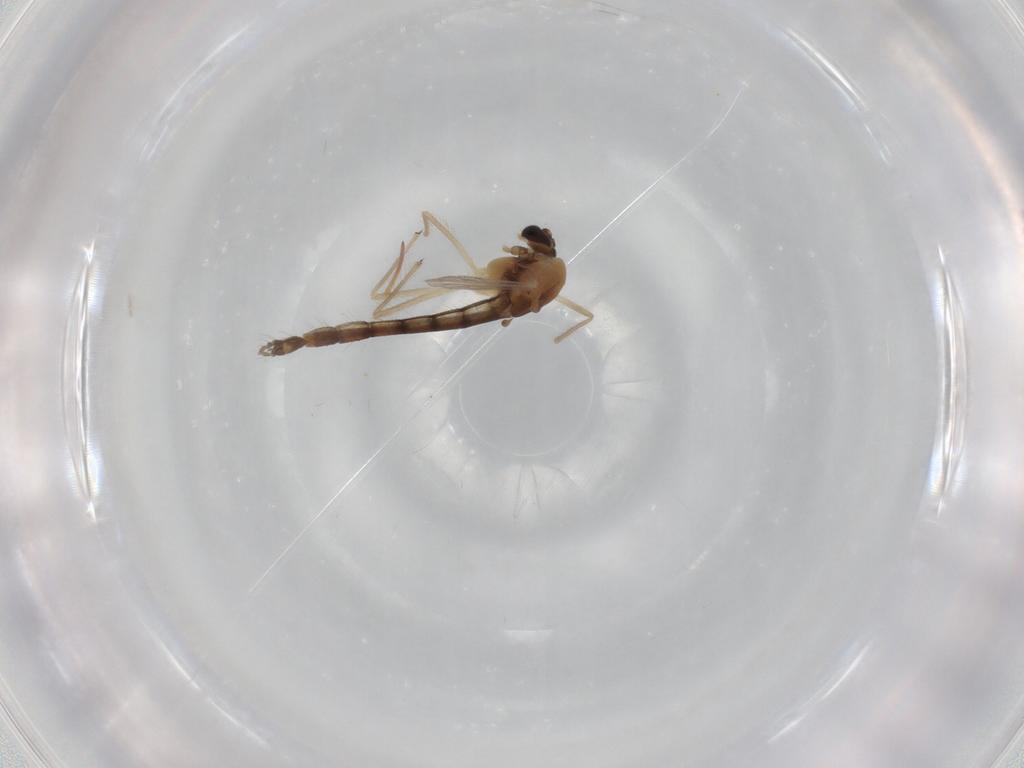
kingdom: Animalia
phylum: Arthropoda
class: Insecta
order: Diptera
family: Chironomidae
